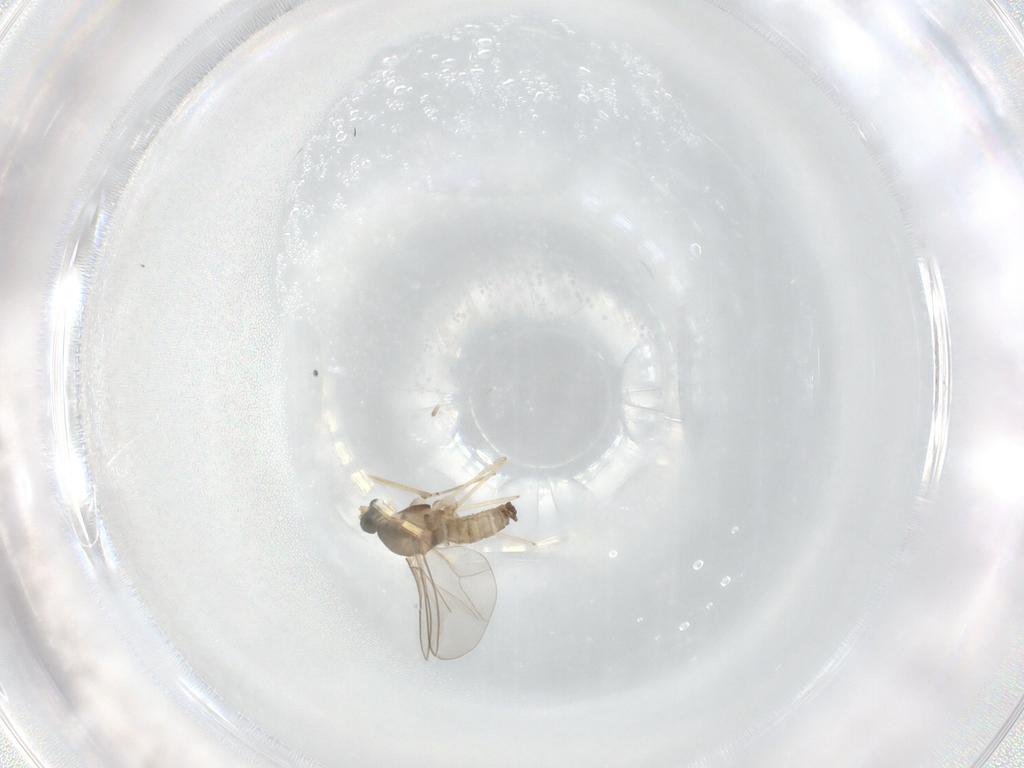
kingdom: Animalia
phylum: Arthropoda
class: Insecta
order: Diptera
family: Cecidomyiidae
